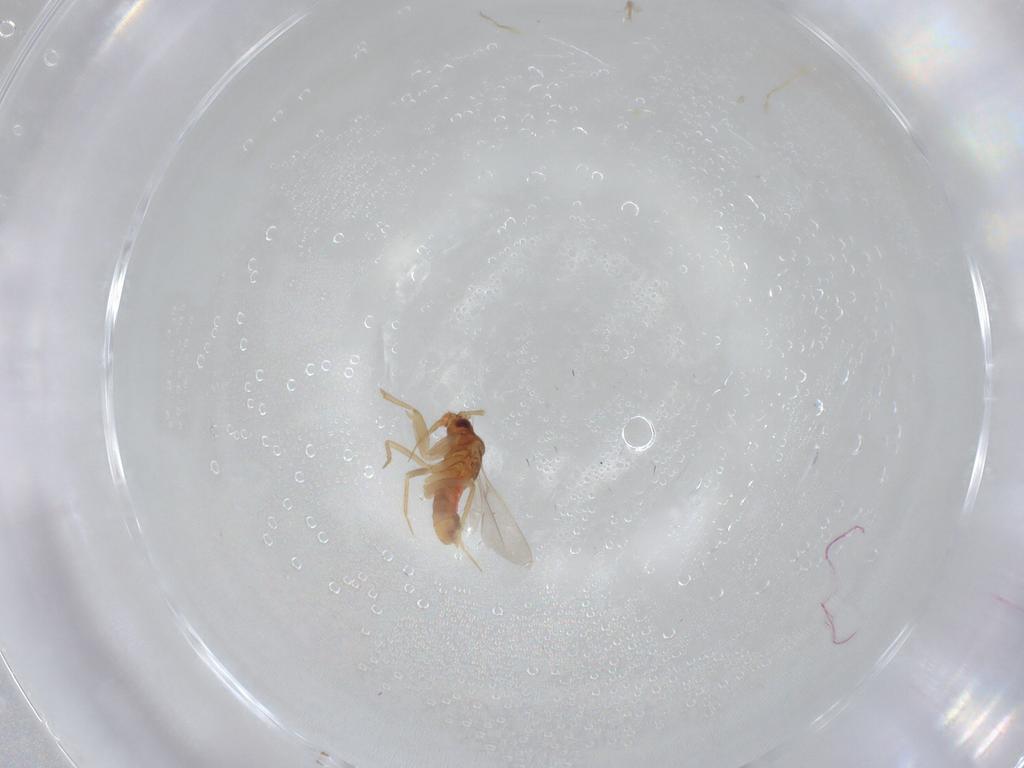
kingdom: Animalia
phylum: Arthropoda
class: Insecta
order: Hemiptera
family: Ceratocombidae
